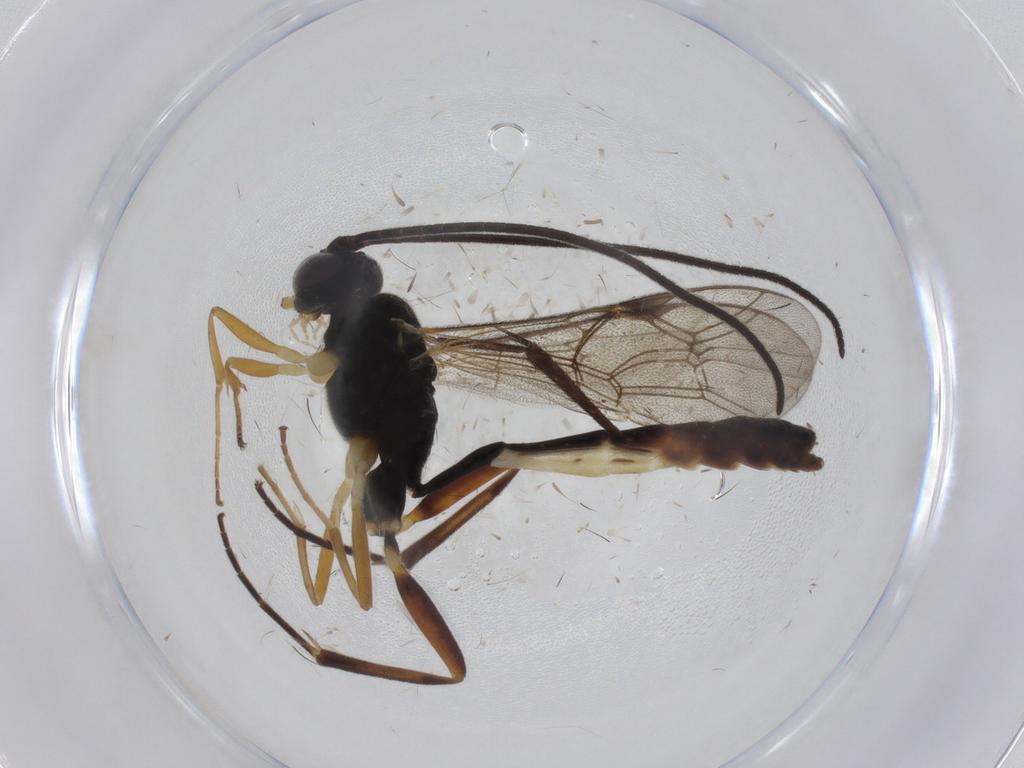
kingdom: Animalia
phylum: Arthropoda
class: Insecta
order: Hymenoptera
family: Ichneumonidae
